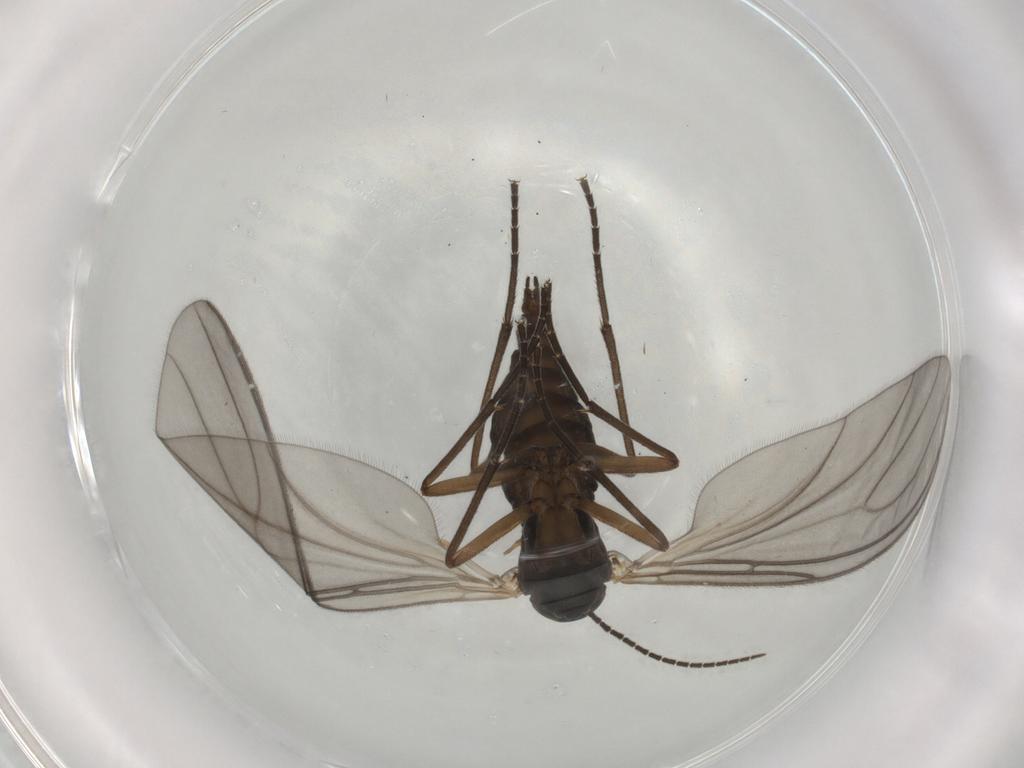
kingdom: Animalia
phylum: Arthropoda
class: Insecta
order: Diptera
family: Sciaridae
